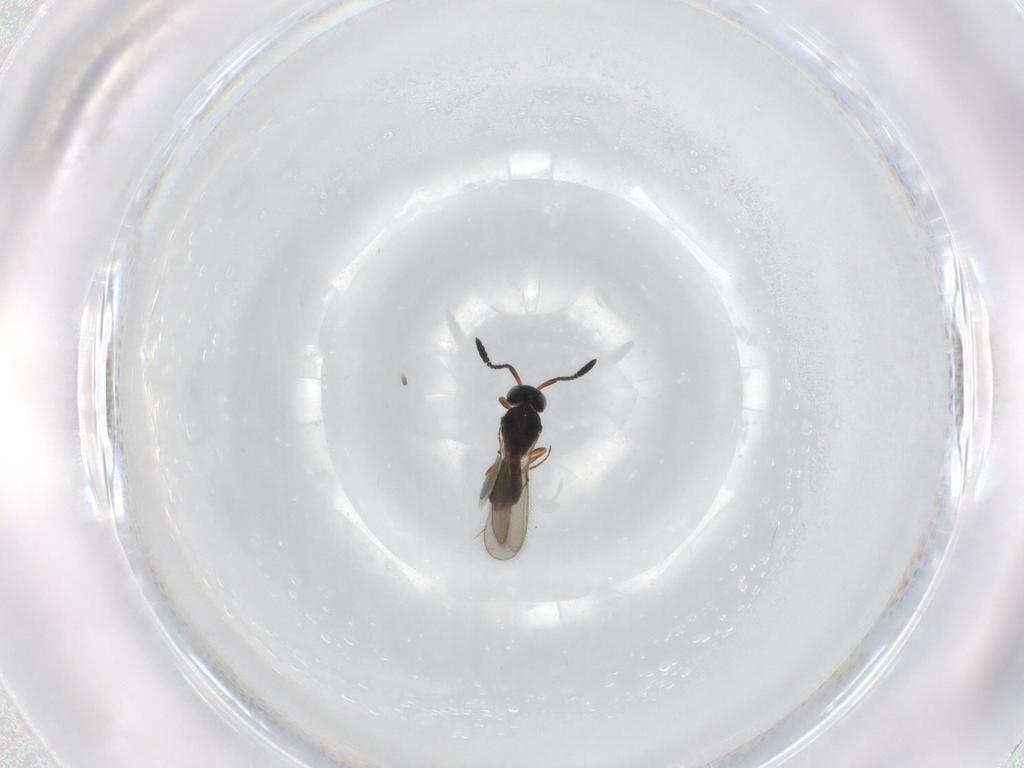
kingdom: Animalia
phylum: Arthropoda
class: Insecta
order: Hymenoptera
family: Scelionidae
